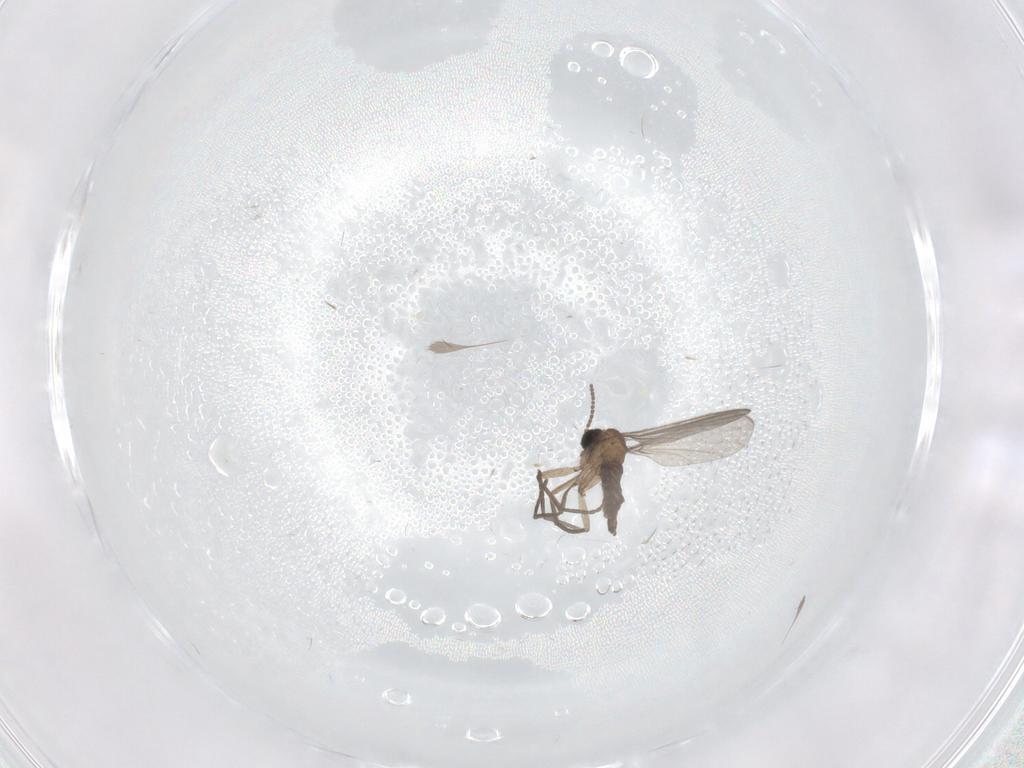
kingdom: Animalia
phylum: Arthropoda
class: Insecta
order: Diptera
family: Sciaridae
